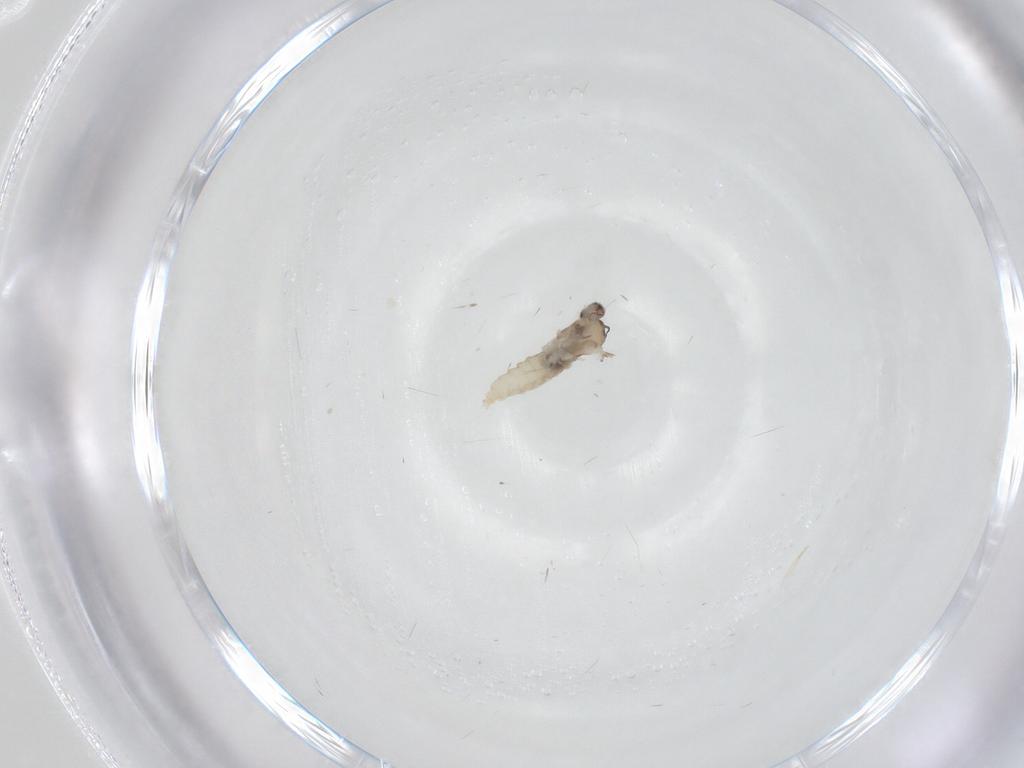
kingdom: Animalia
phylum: Arthropoda
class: Insecta
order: Diptera
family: Cecidomyiidae
